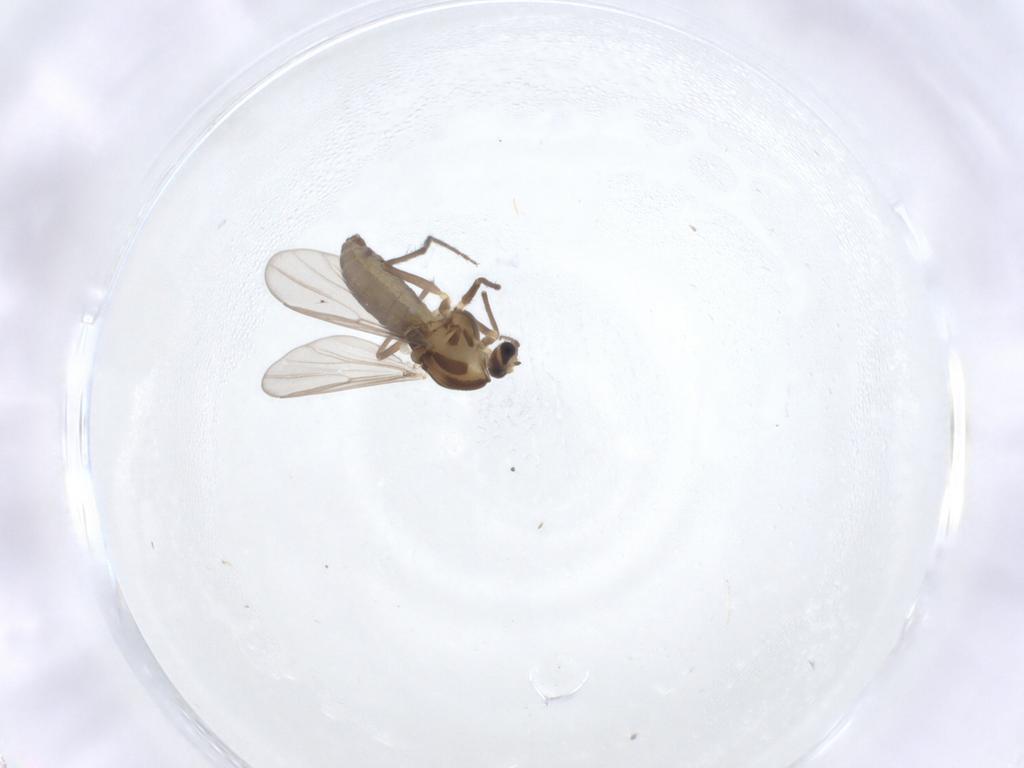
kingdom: Animalia
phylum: Arthropoda
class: Insecta
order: Diptera
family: Chironomidae
